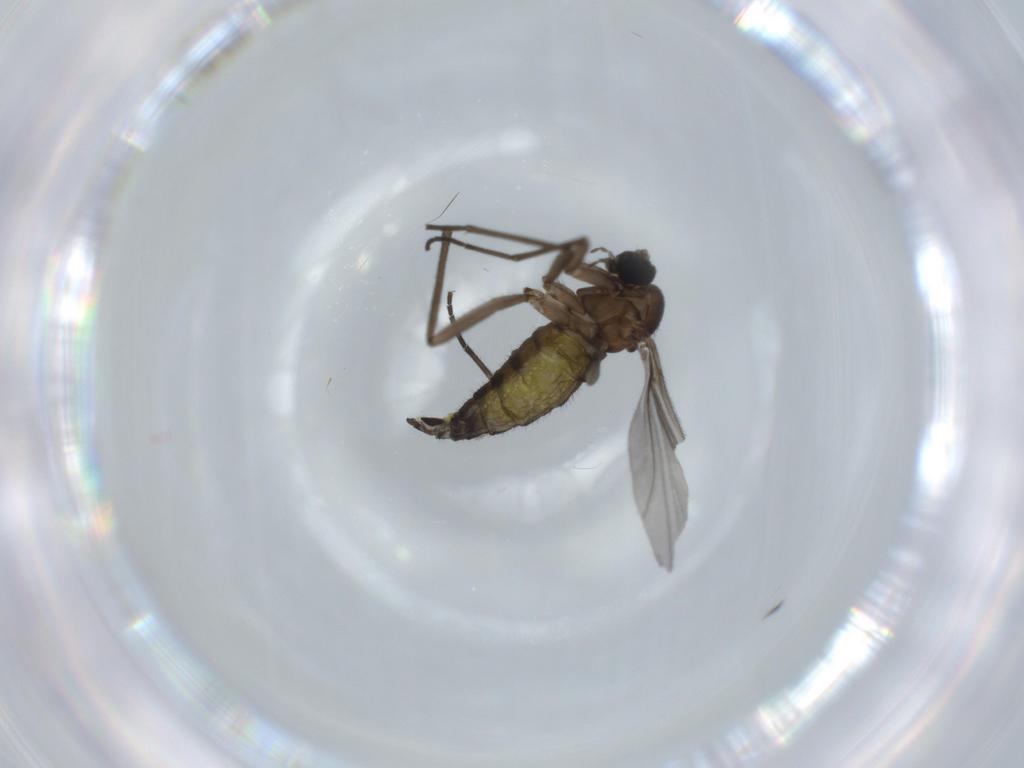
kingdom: Animalia
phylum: Arthropoda
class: Insecta
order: Diptera
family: Sciaridae
